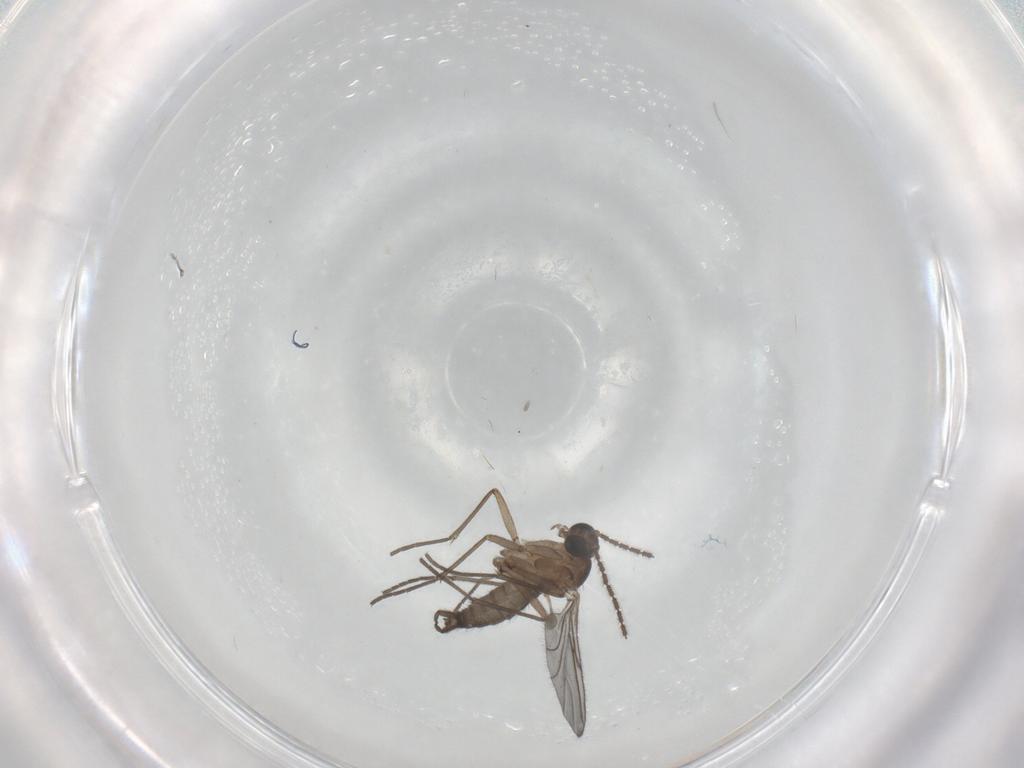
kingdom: Animalia
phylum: Arthropoda
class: Insecta
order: Diptera
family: Sciaridae
